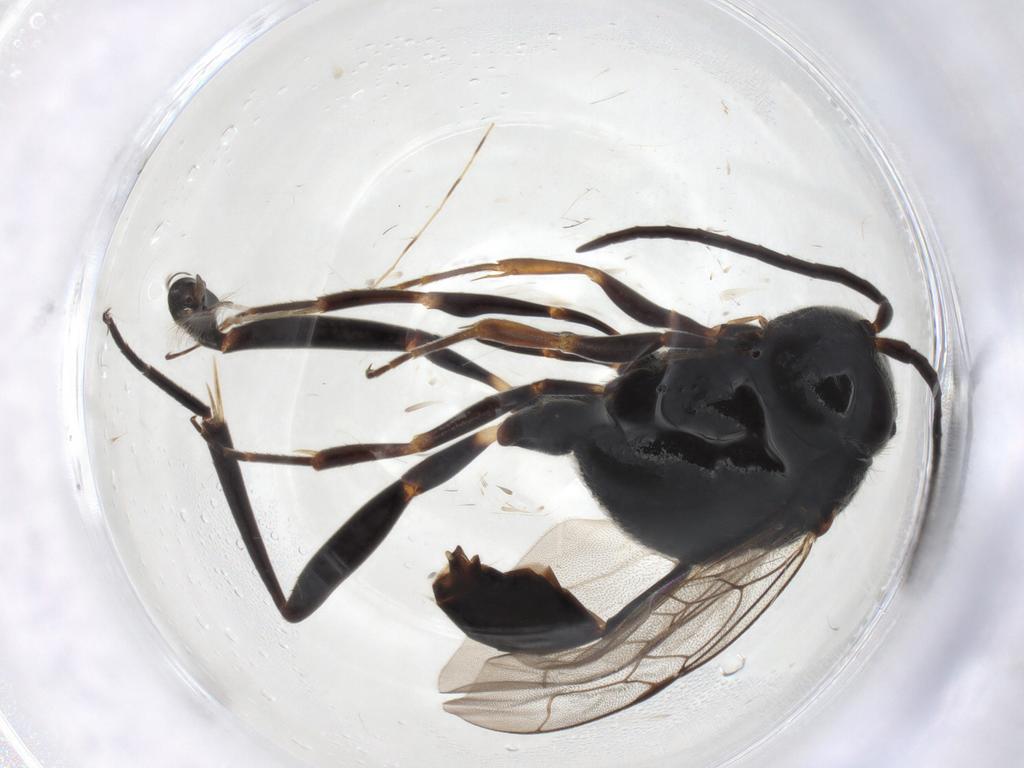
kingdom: Animalia
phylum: Arthropoda
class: Insecta
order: Hymenoptera
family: Evaniidae
